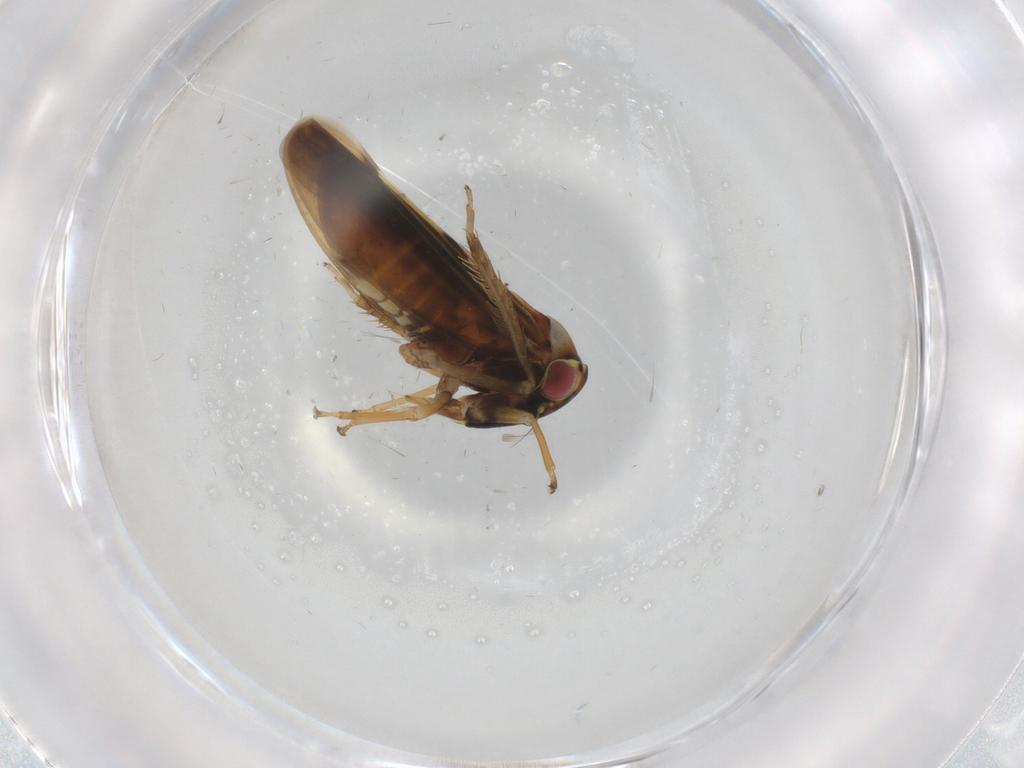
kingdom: Animalia
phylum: Arthropoda
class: Insecta
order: Hemiptera
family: Cicadellidae
